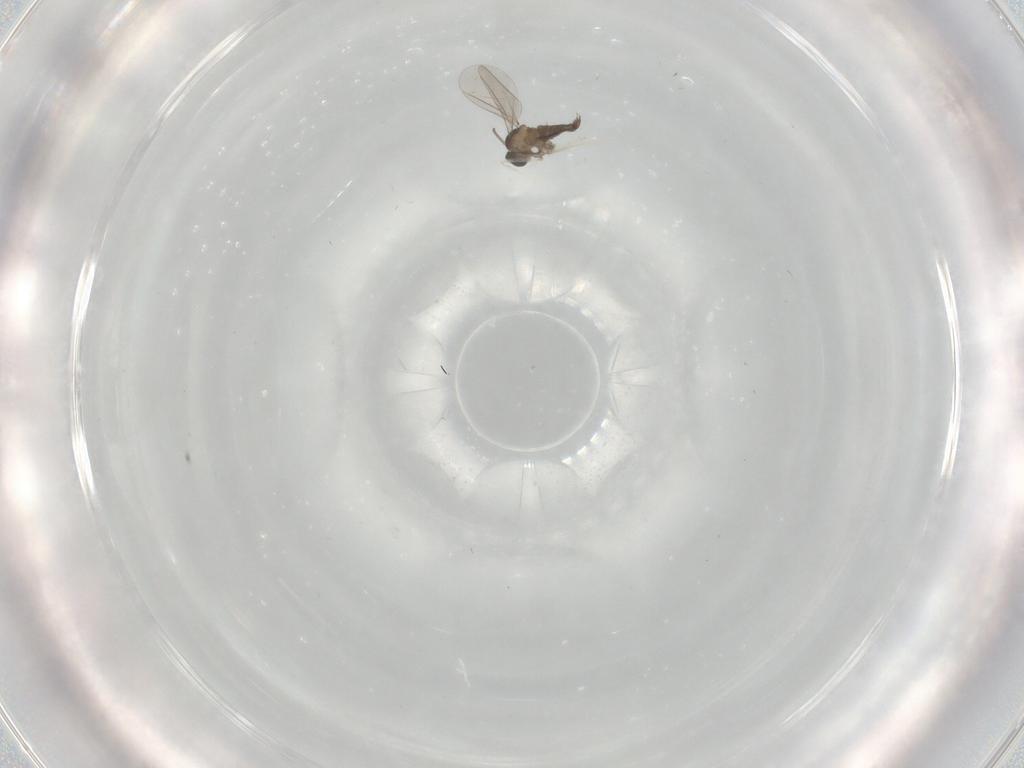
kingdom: Animalia
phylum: Arthropoda
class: Insecta
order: Diptera
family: Cecidomyiidae
